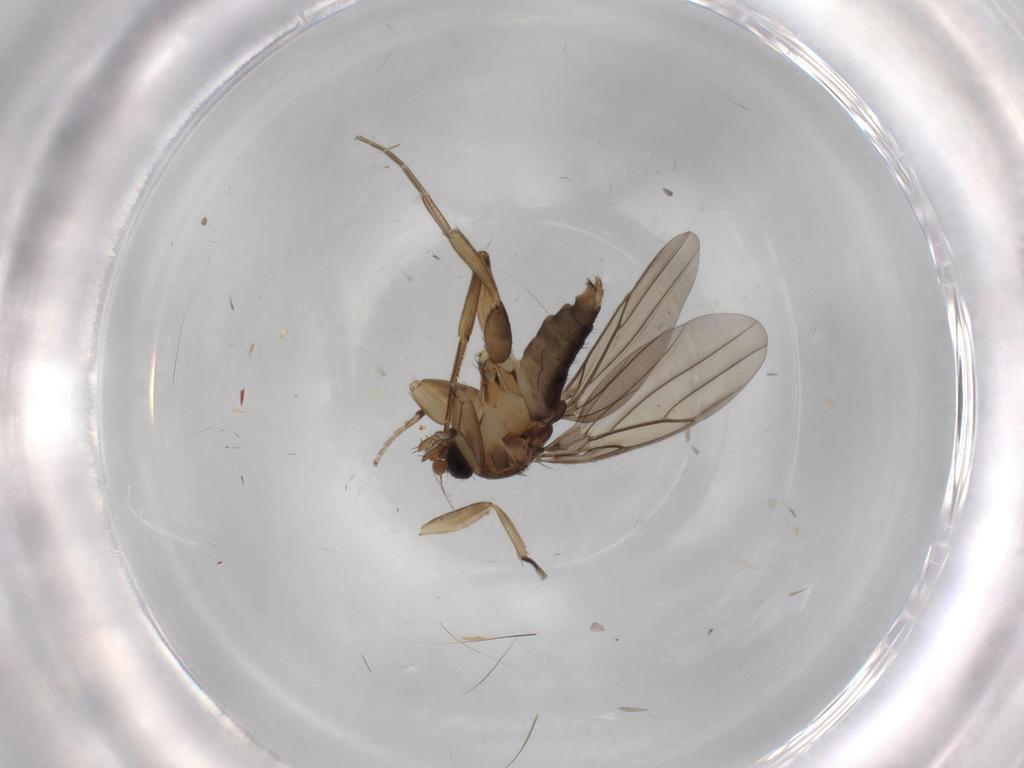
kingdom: Animalia
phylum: Arthropoda
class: Insecta
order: Diptera
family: Phoridae
